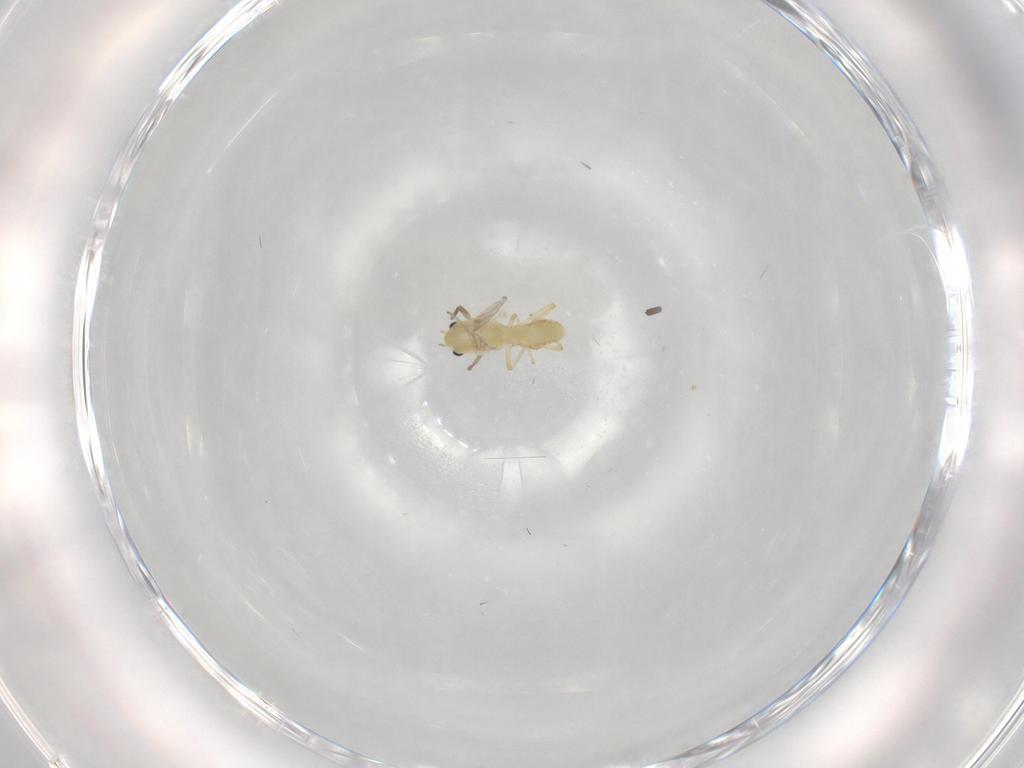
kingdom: Animalia
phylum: Arthropoda
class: Insecta
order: Diptera
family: Chironomidae
